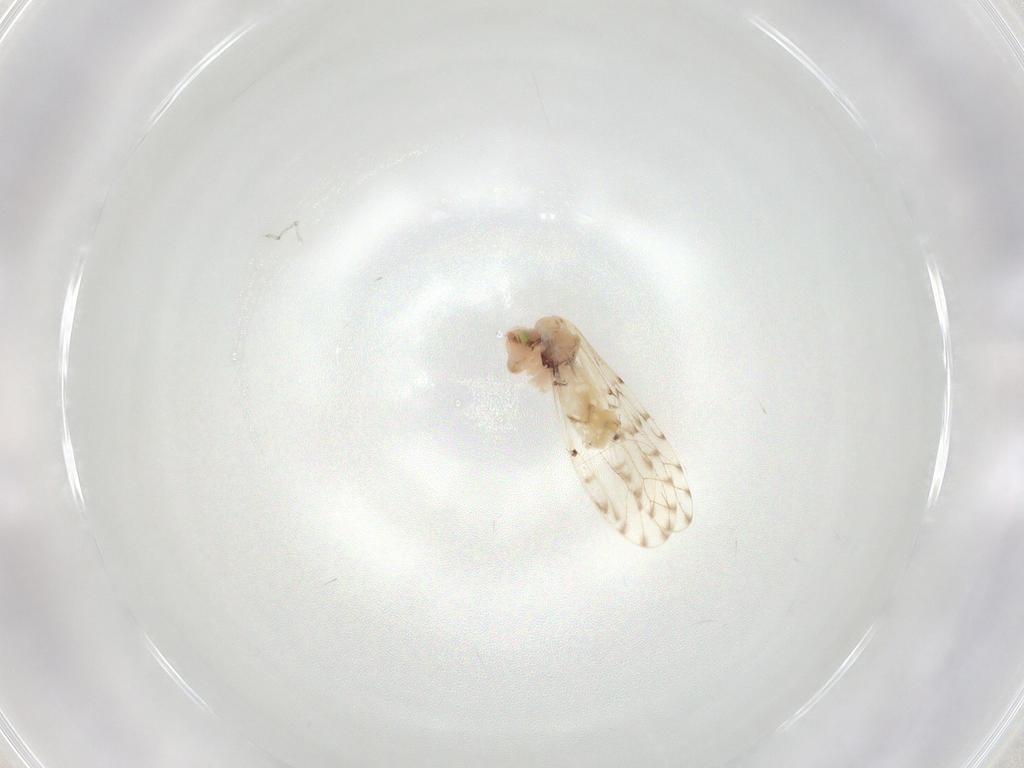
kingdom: Animalia
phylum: Arthropoda
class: Insecta
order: Psocodea
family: Trichopsocidae
